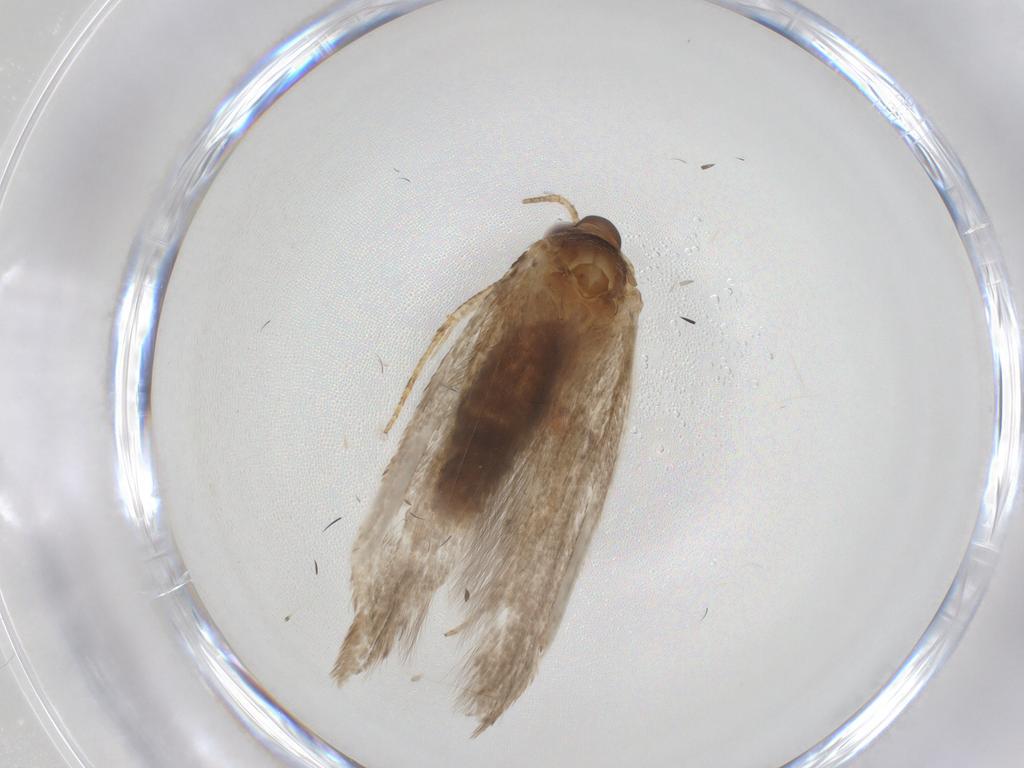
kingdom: Animalia
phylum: Arthropoda
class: Insecta
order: Lepidoptera
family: Blastobasidae
